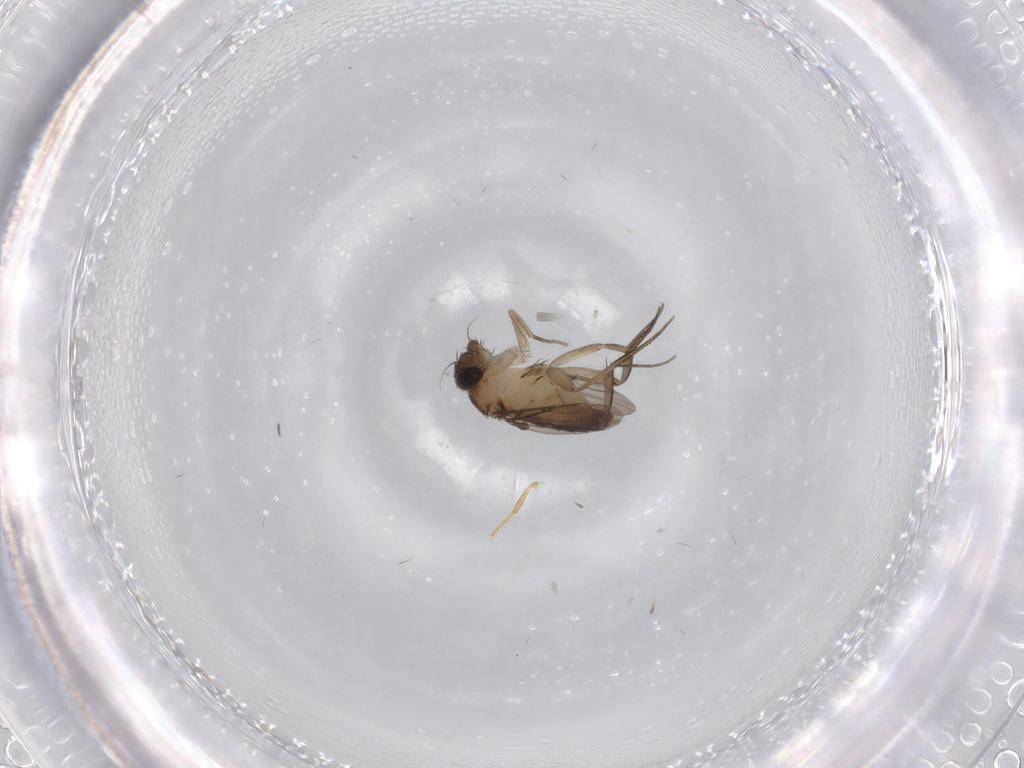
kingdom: Animalia
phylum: Arthropoda
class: Insecta
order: Diptera
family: Phoridae
